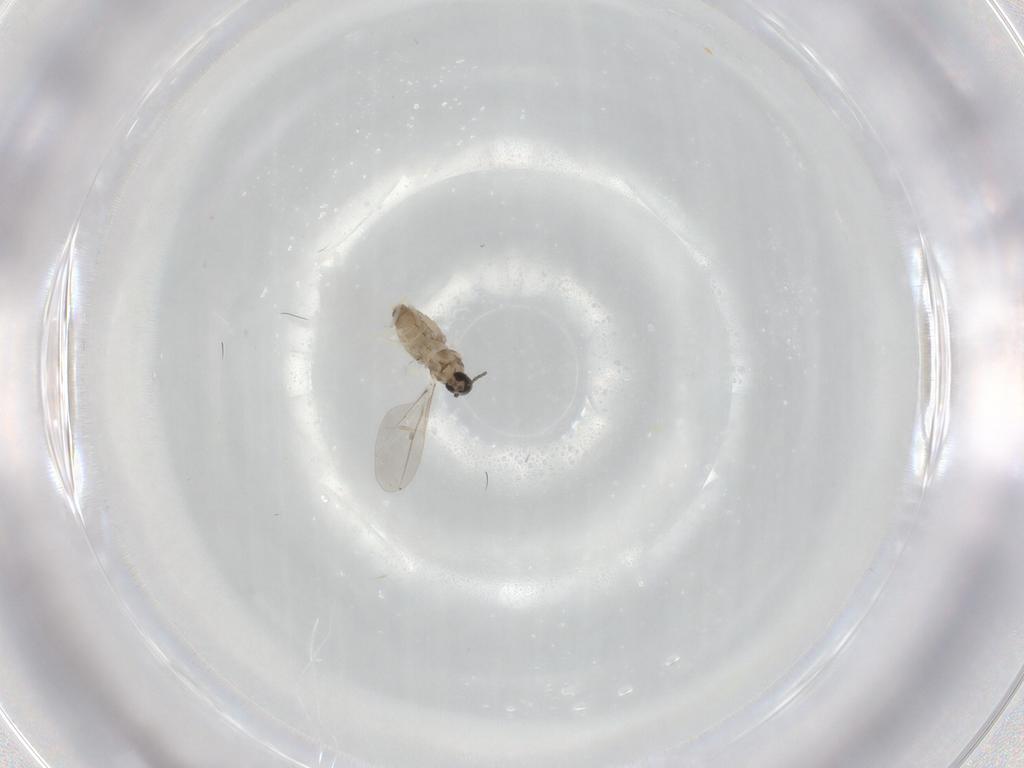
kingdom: Animalia
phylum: Arthropoda
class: Insecta
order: Diptera
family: Cecidomyiidae
